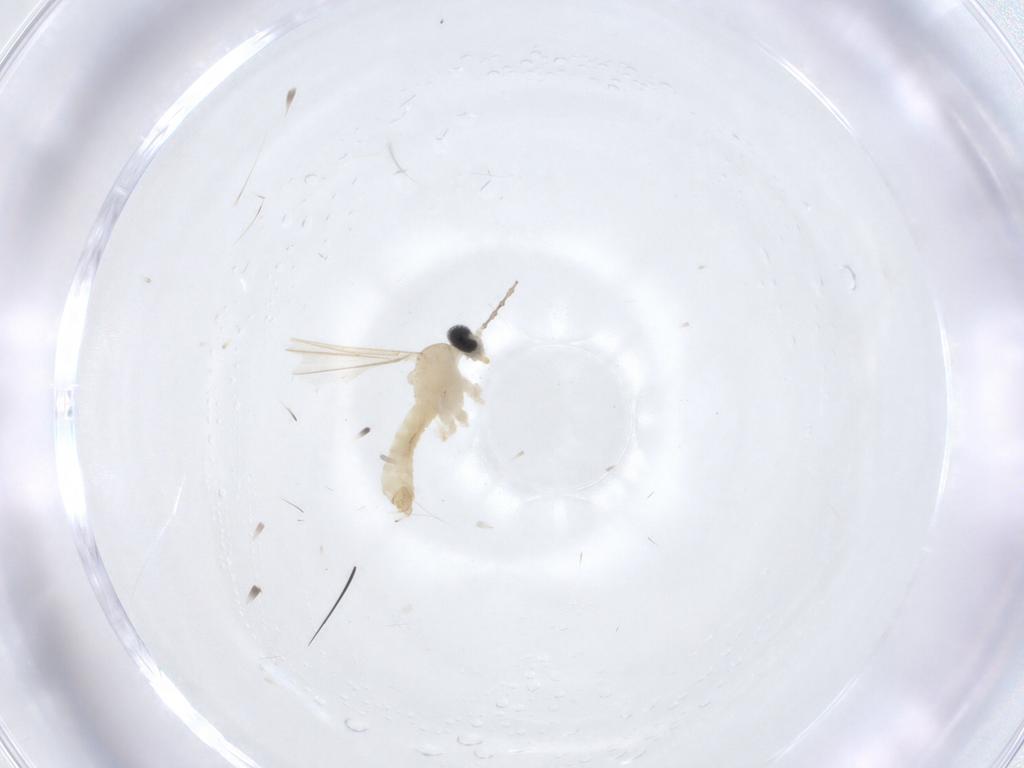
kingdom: Animalia
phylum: Arthropoda
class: Insecta
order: Diptera
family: Cecidomyiidae
